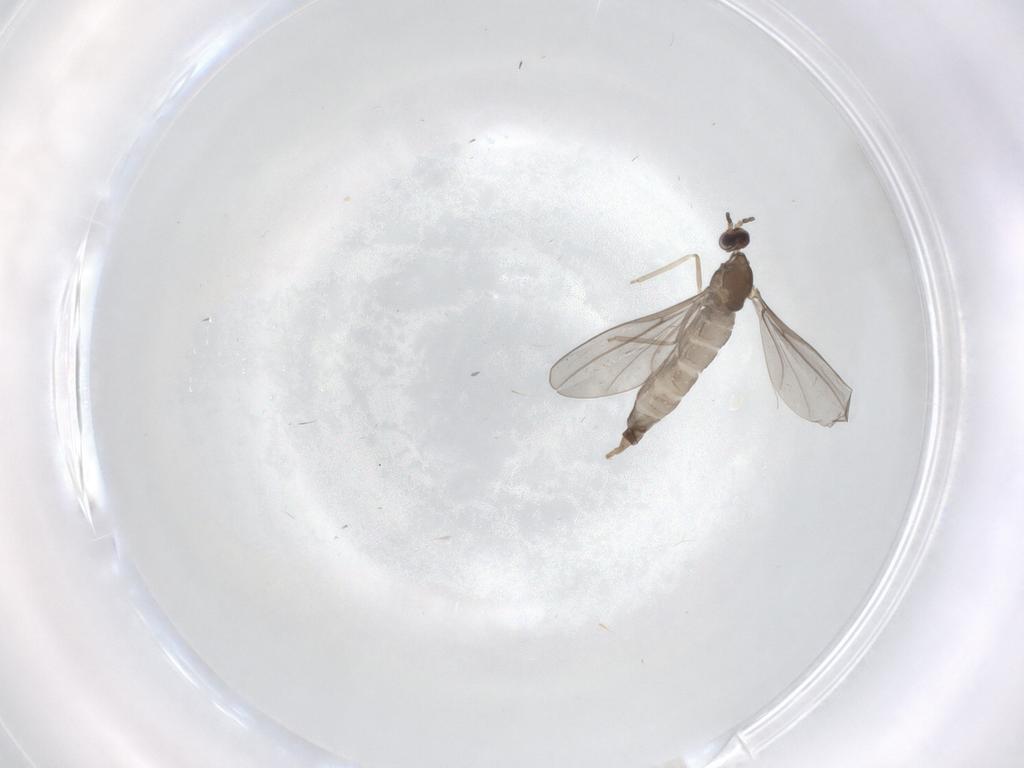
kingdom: Animalia
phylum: Arthropoda
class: Insecta
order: Diptera
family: Cecidomyiidae
